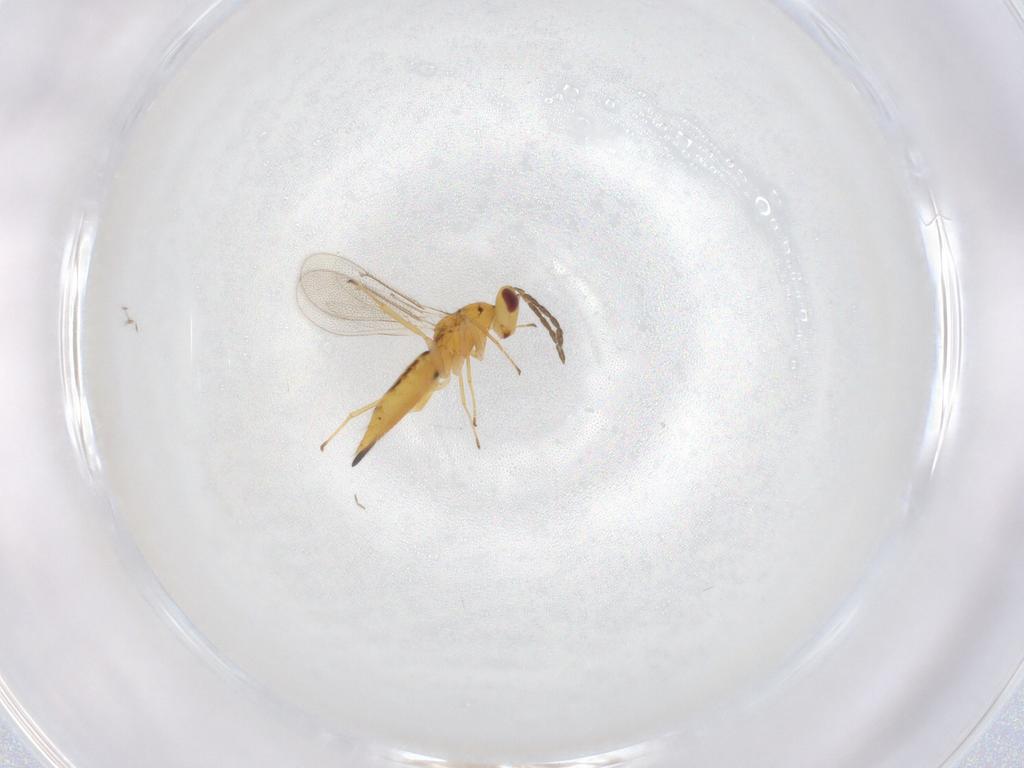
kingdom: Animalia
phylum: Arthropoda
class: Insecta
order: Hymenoptera
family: Eulophidae
